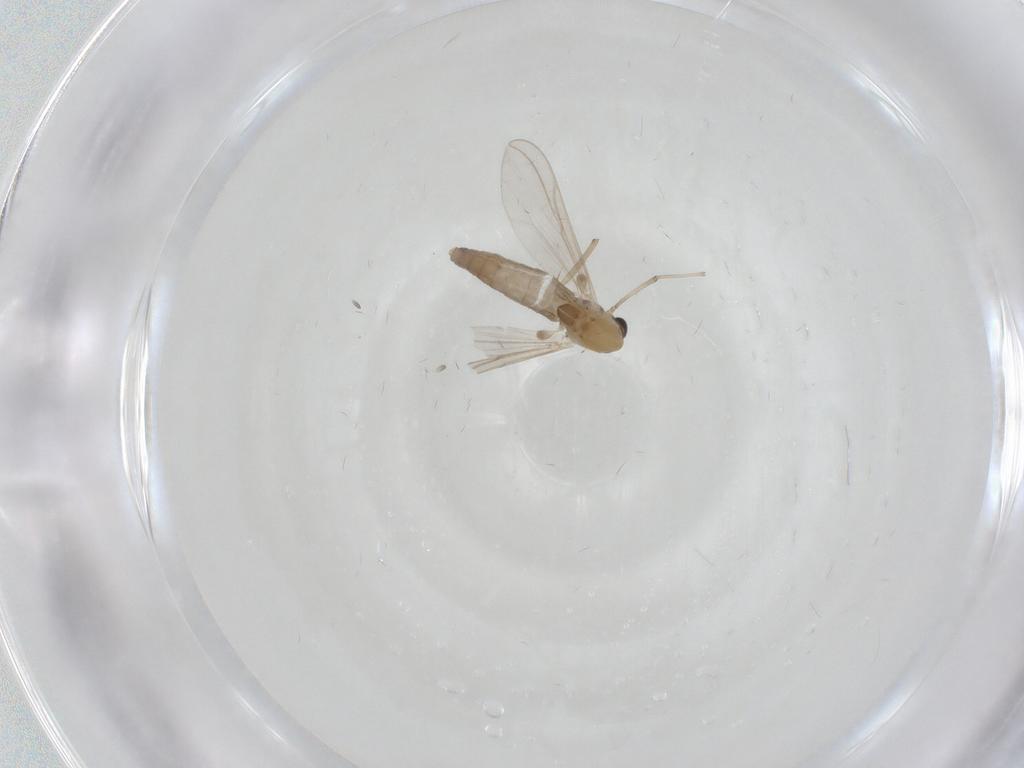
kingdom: Animalia
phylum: Arthropoda
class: Insecta
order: Diptera
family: Chironomidae
